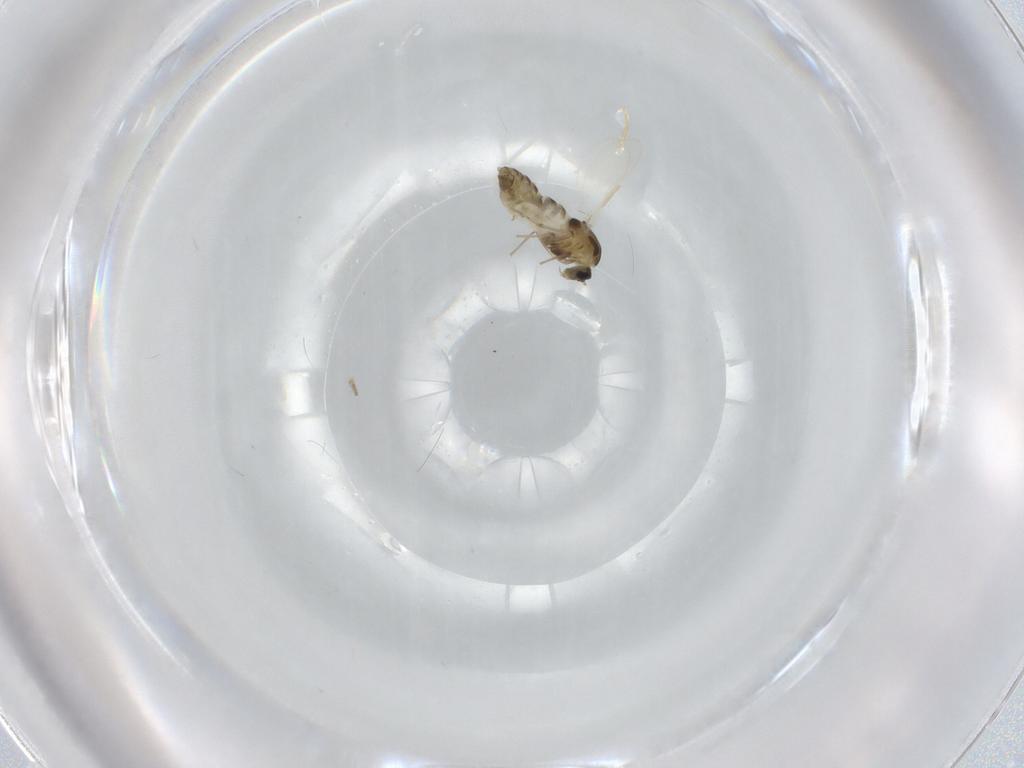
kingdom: Animalia
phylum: Arthropoda
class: Insecta
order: Diptera
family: Chironomidae
